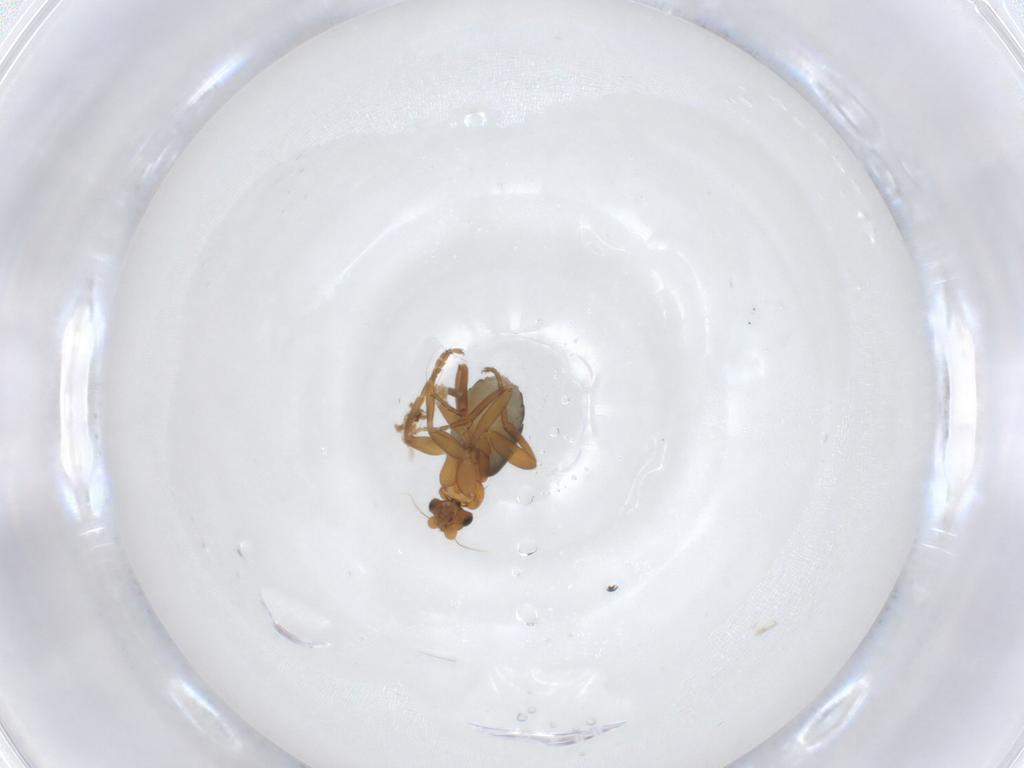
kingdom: Animalia
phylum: Arthropoda
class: Insecta
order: Diptera
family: Phoridae
